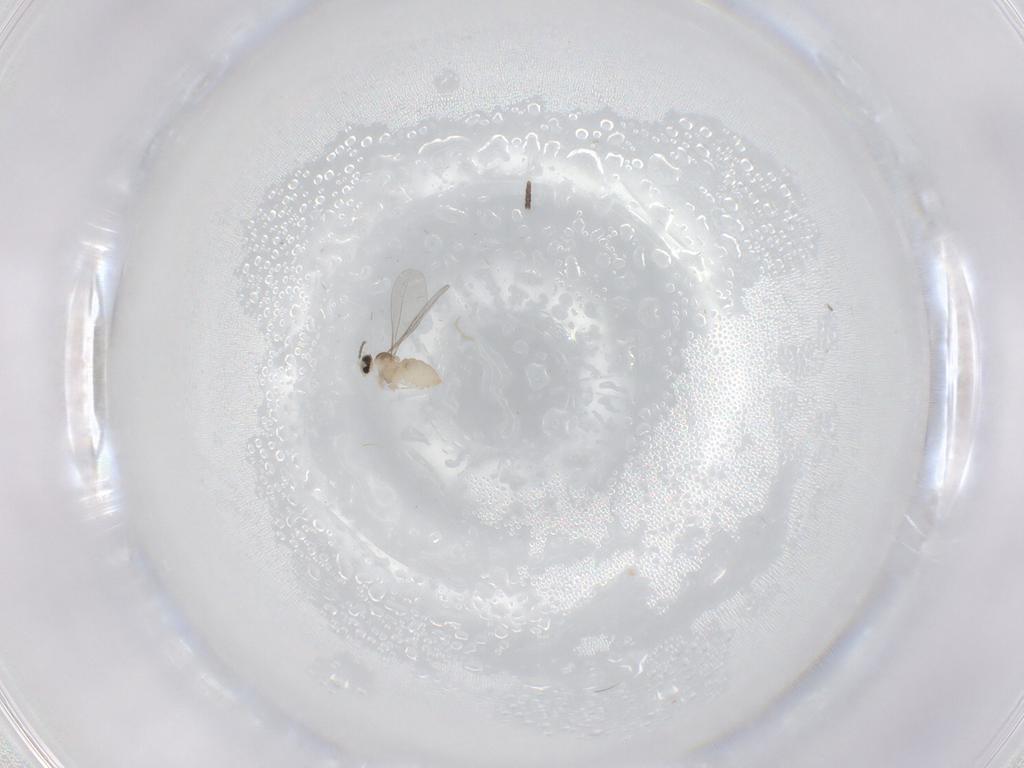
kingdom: Animalia
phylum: Arthropoda
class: Insecta
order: Diptera
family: Cecidomyiidae
